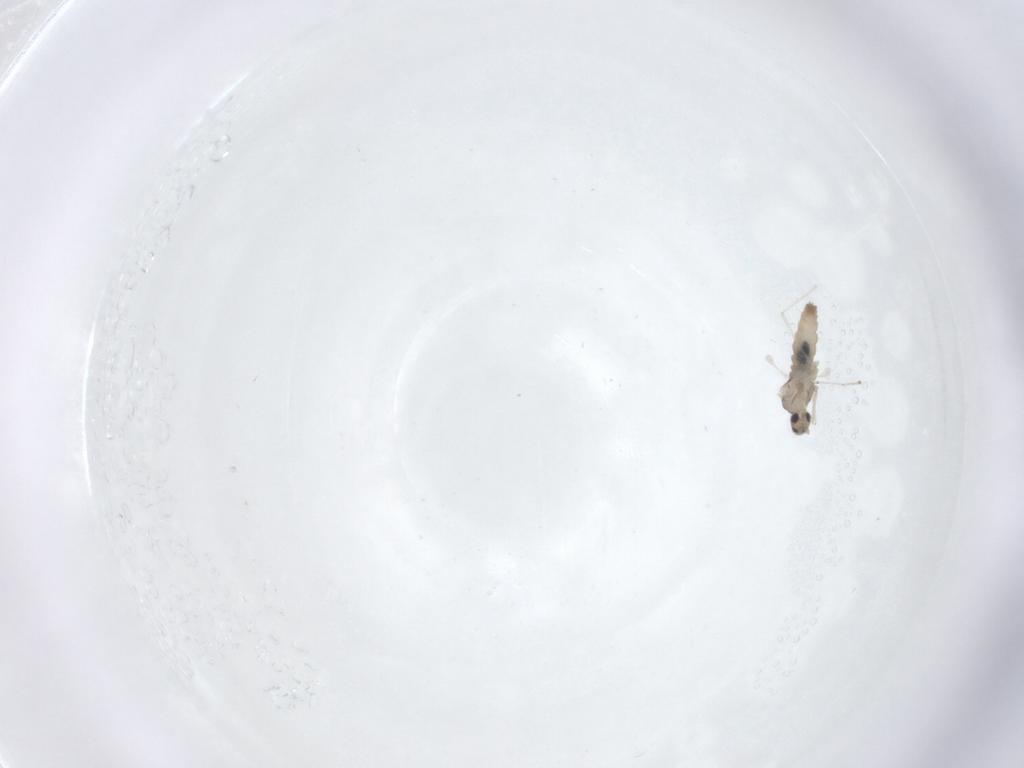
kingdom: Animalia
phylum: Arthropoda
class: Insecta
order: Diptera
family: Cecidomyiidae
